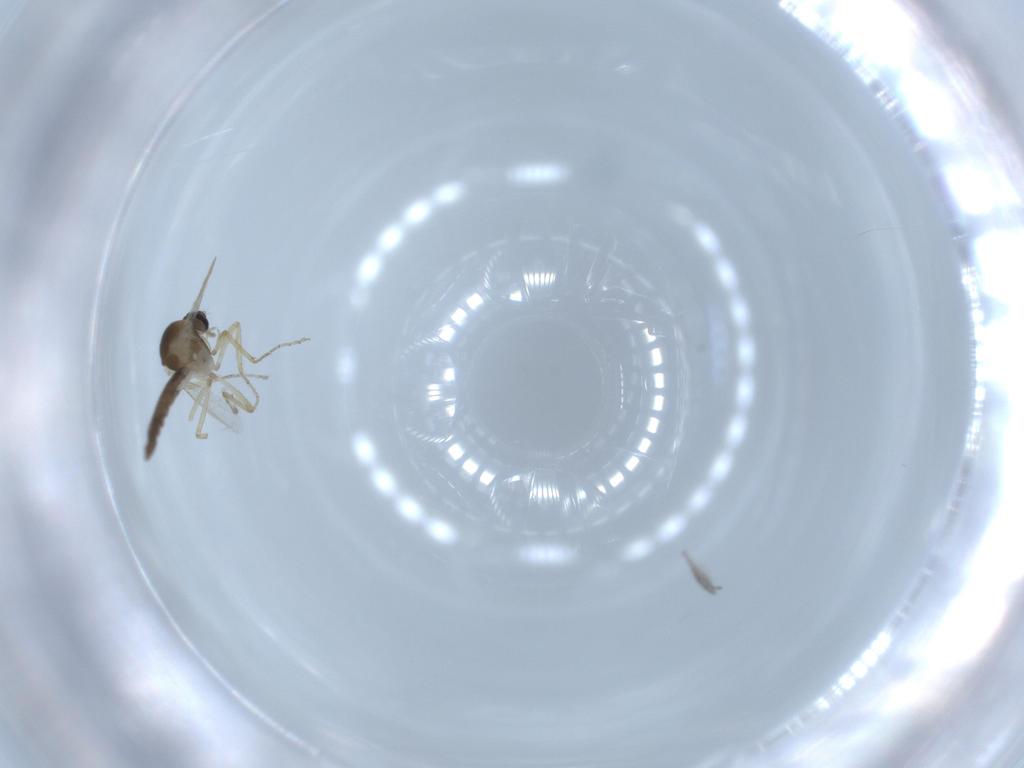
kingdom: Animalia
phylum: Arthropoda
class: Insecta
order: Diptera
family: Ceratopogonidae
